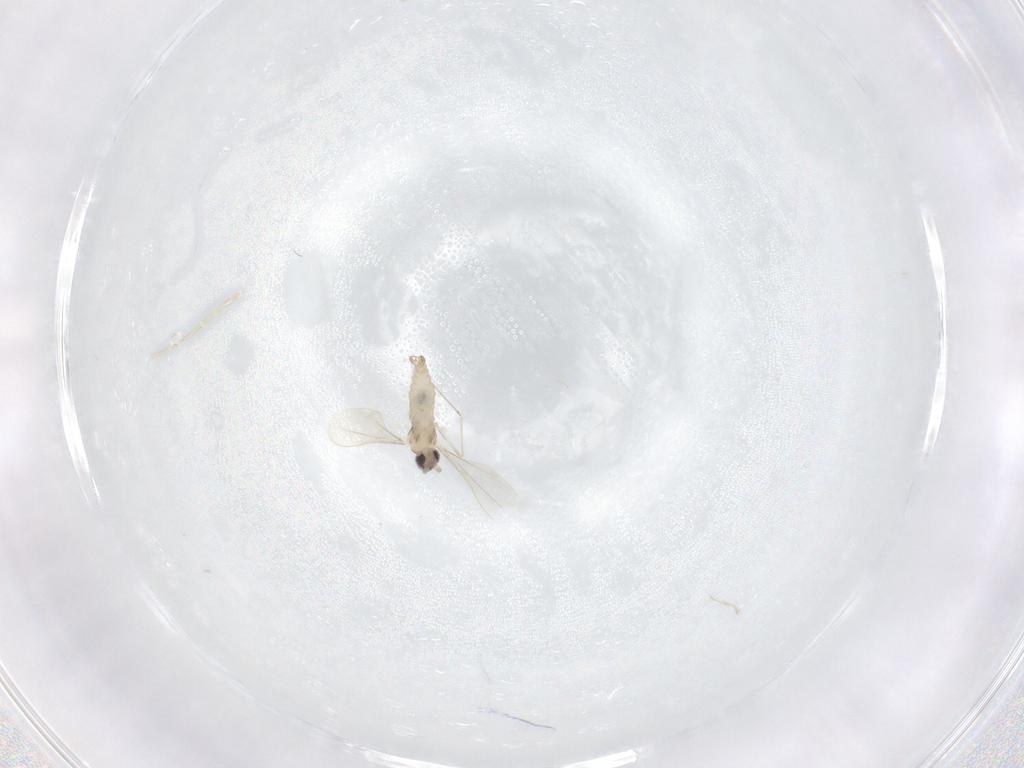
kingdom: Animalia
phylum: Arthropoda
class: Insecta
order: Diptera
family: Cecidomyiidae
